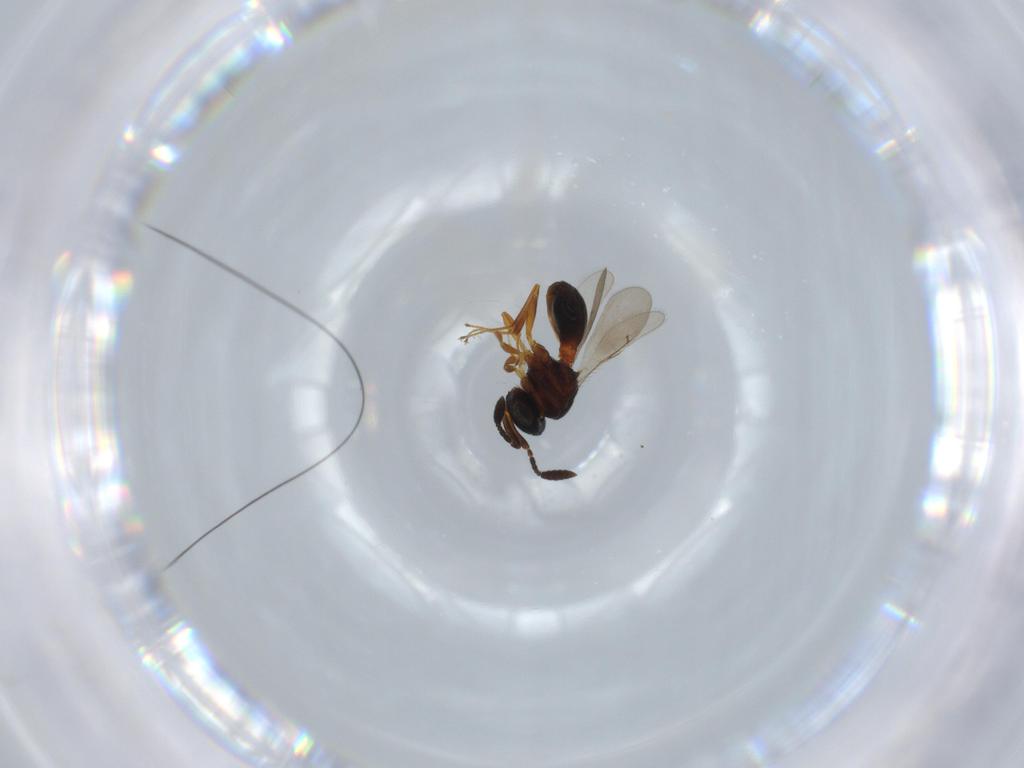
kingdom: Animalia
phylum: Arthropoda
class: Insecta
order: Hymenoptera
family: Scelionidae
